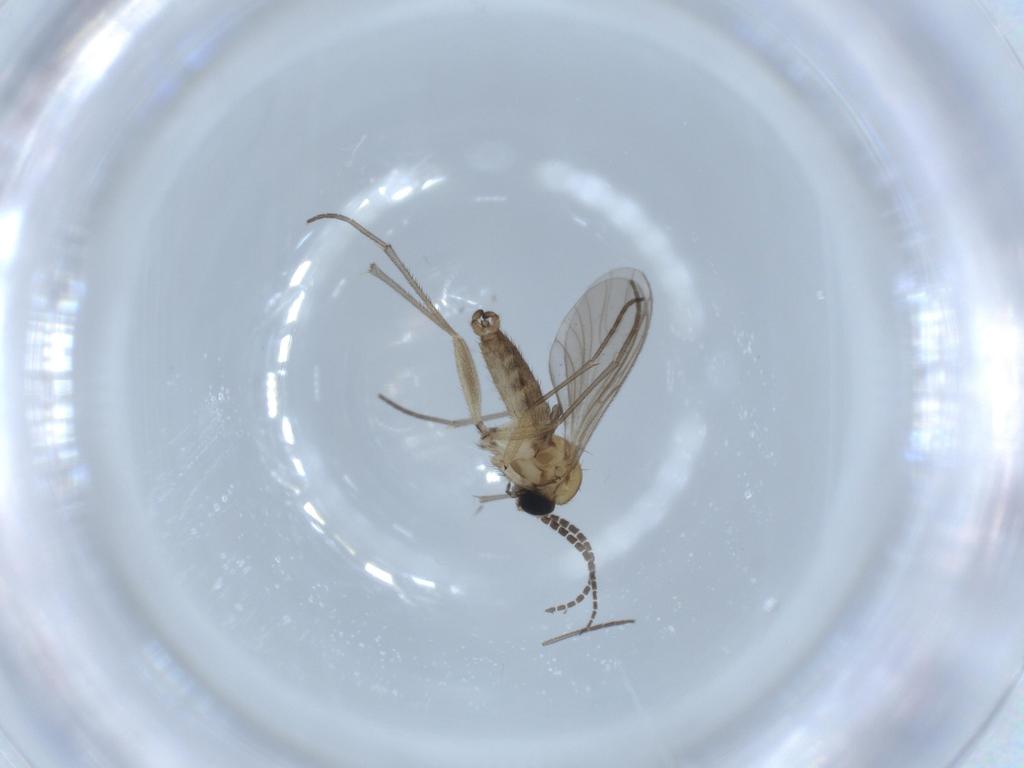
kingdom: Animalia
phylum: Arthropoda
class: Insecta
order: Diptera
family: Sciaridae
